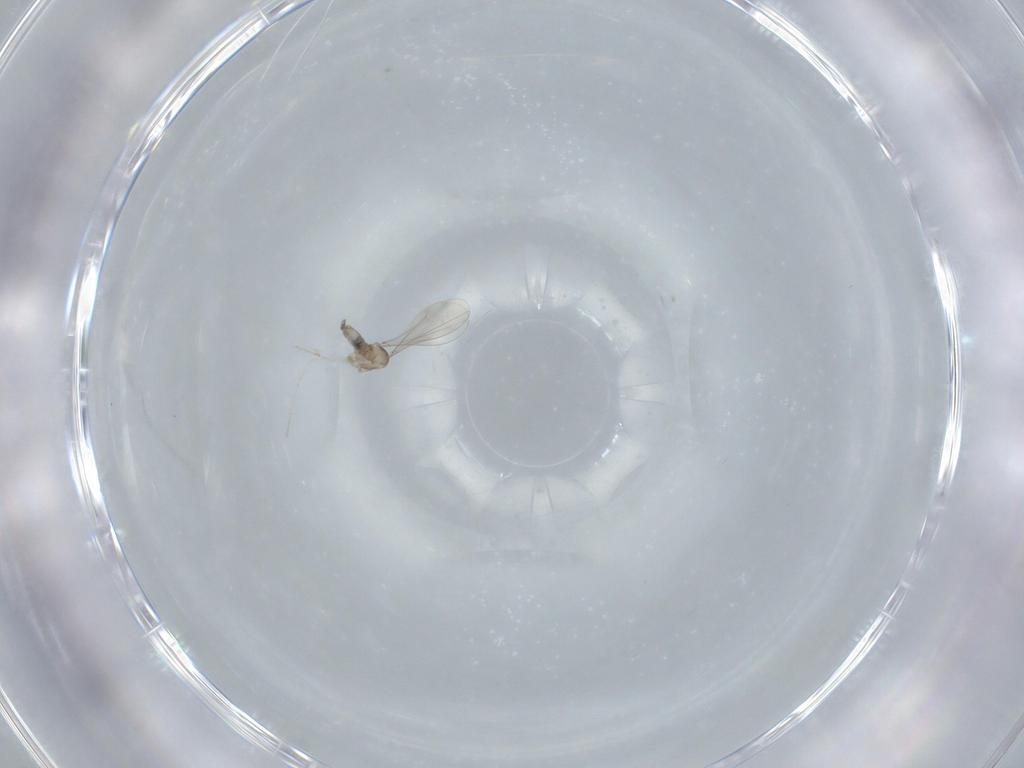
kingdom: Animalia
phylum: Arthropoda
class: Insecta
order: Diptera
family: Cecidomyiidae
